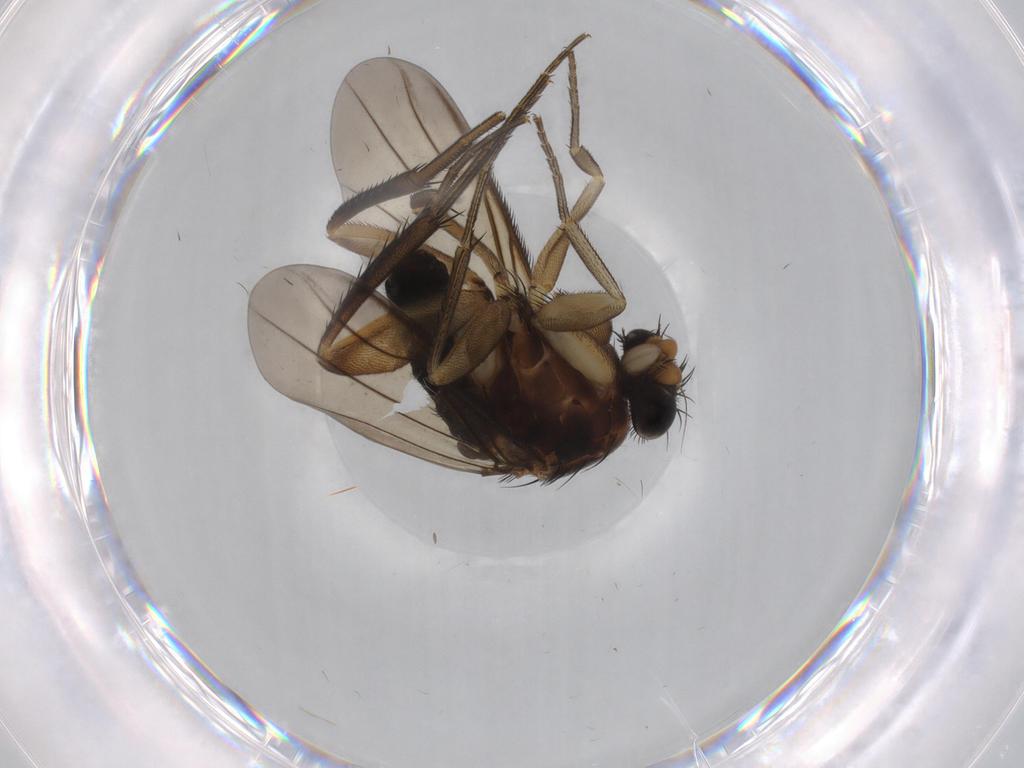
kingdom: Animalia
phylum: Arthropoda
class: Insecta
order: Diptera
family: Phoridae
